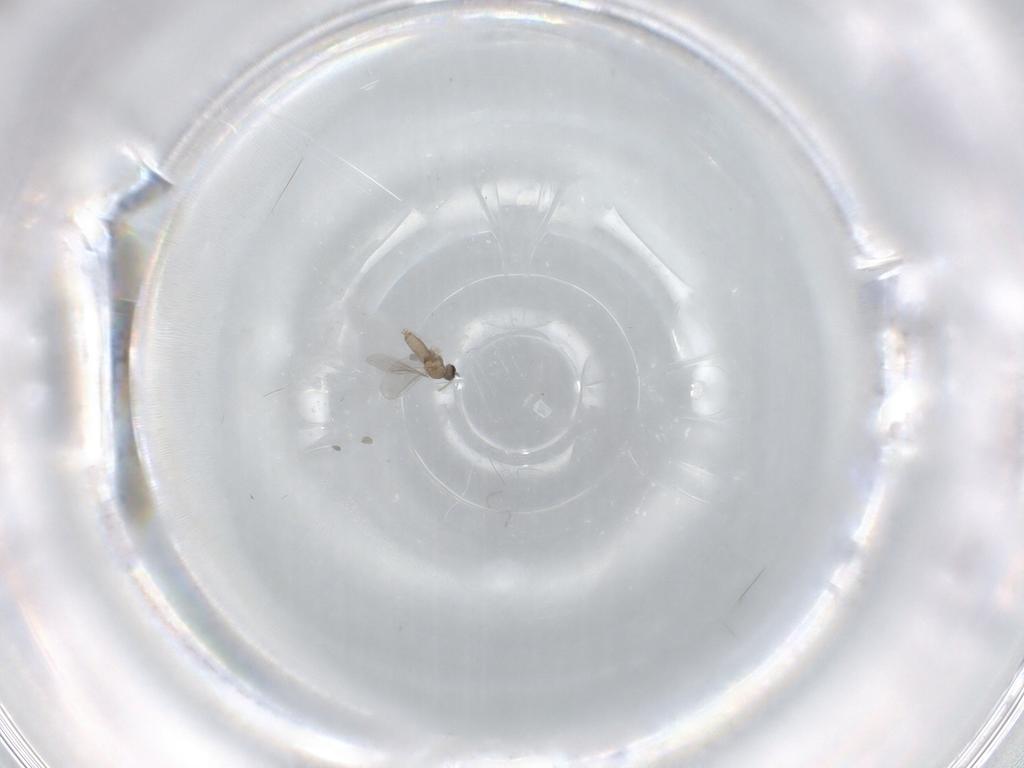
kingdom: Animalia
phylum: Arthropoda
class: Insecta
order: Diptera
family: Cecidomyiidae
